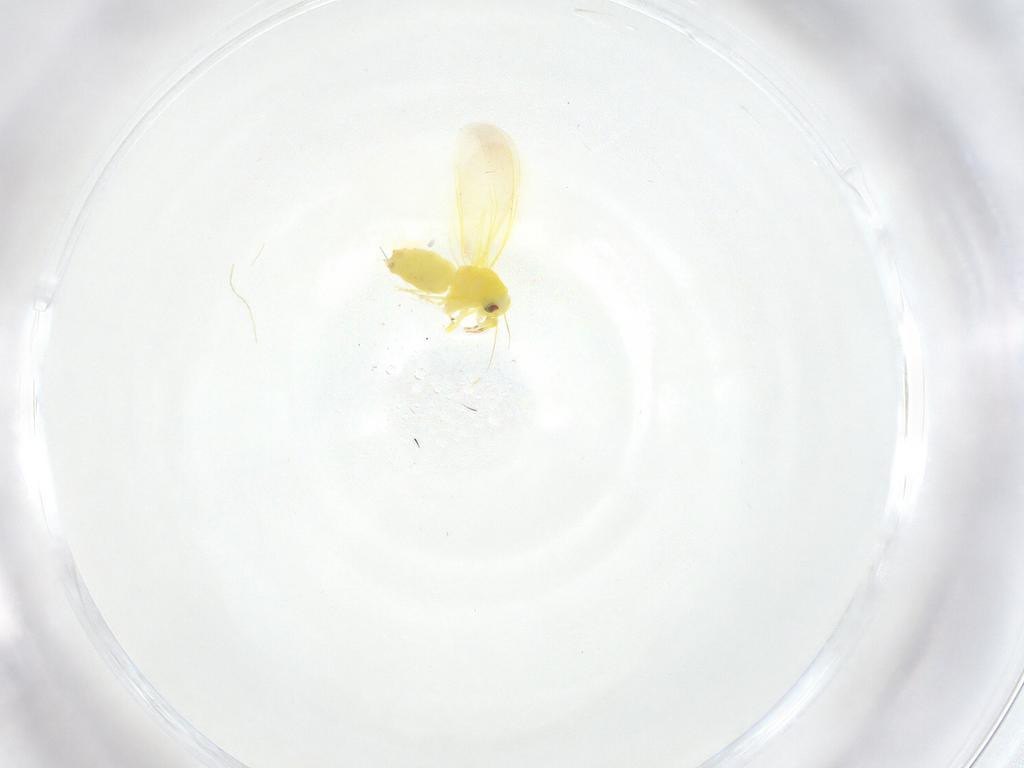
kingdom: Animalia
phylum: Arthropoda
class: Insecta
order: Hemiptera
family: Aleyrodidae
